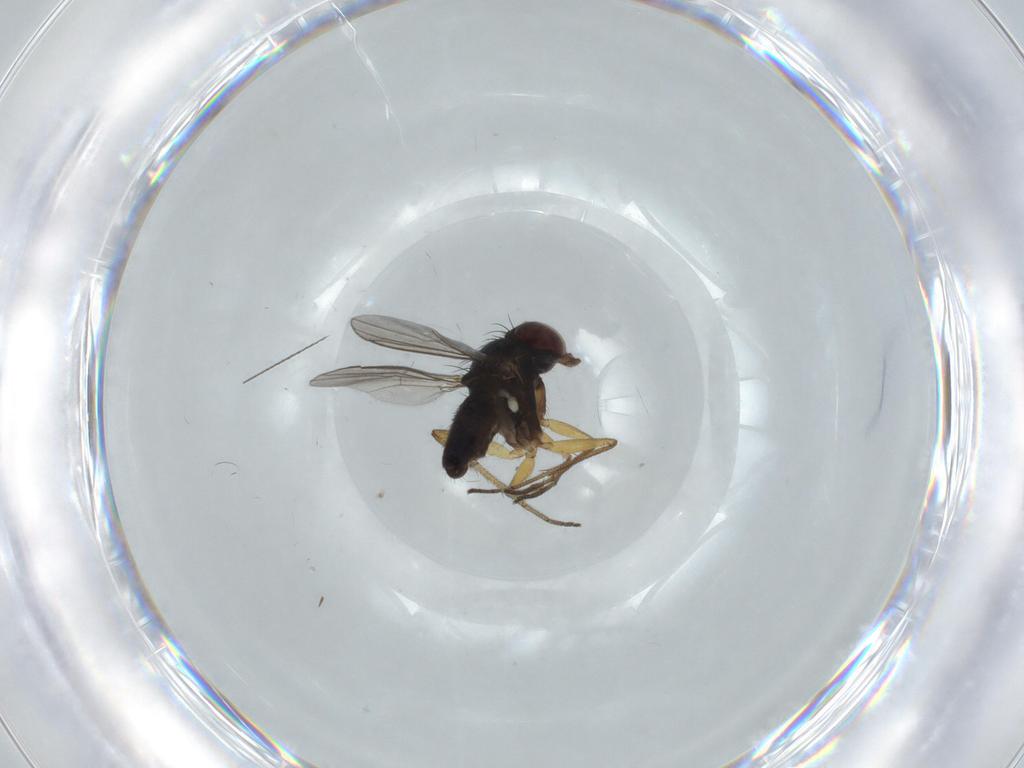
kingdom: Animalia
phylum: Arthropoda
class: Insecta
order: Diptera
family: Dolichopodidae
